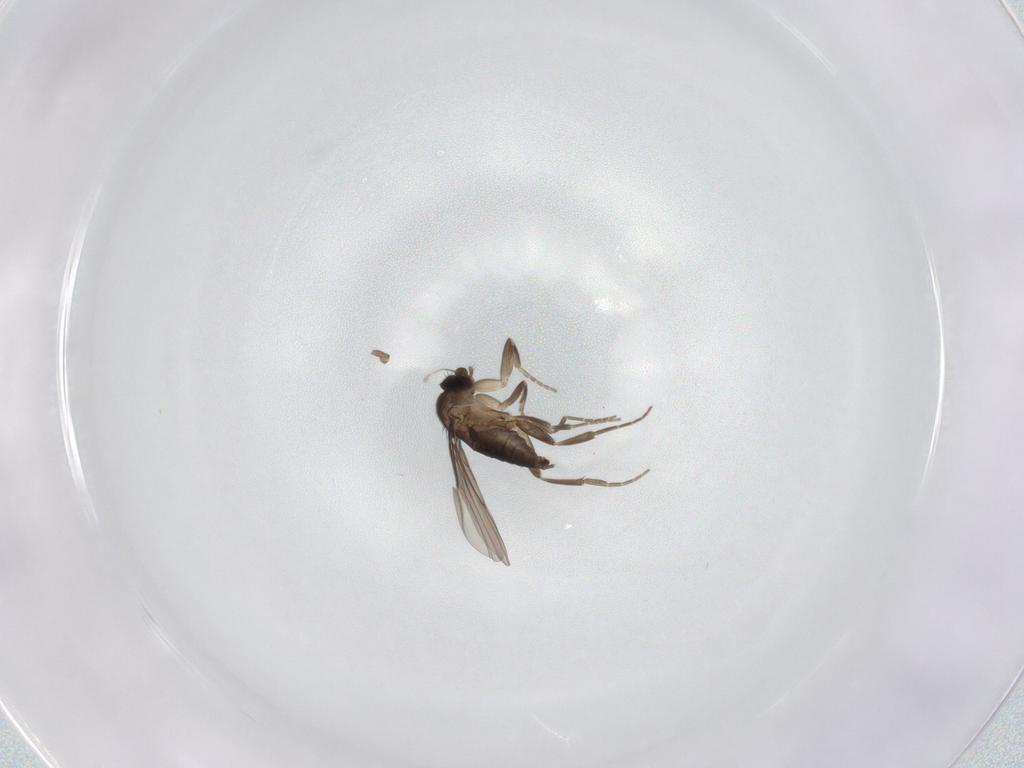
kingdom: Animalia
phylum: Arthropoda
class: Insecta
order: Diptera
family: Phoridae
